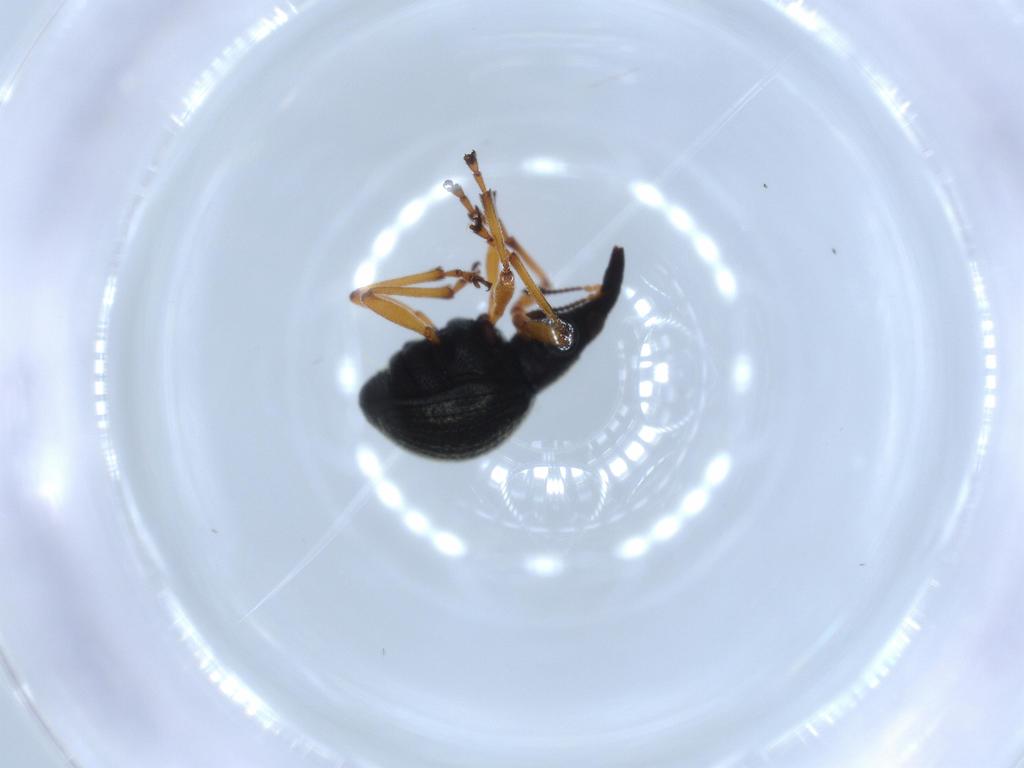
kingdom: Animalia
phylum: Arthropoda
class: Insecta
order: Coleoptera
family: Brentidae
